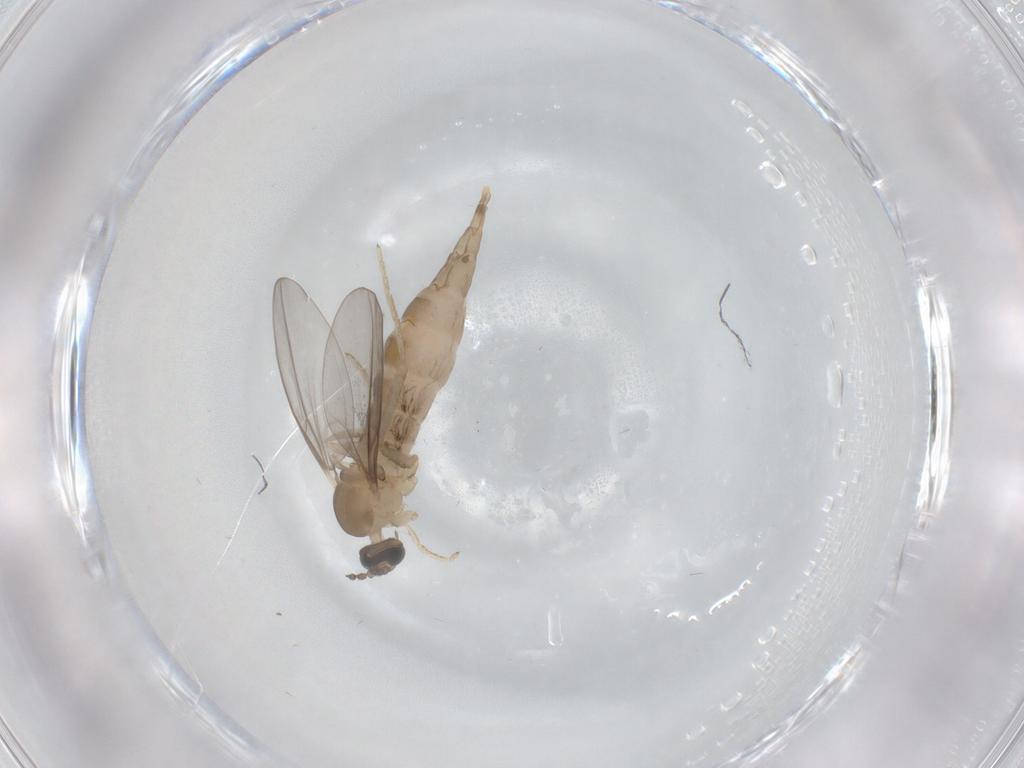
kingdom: Animalia
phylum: Arthropoda
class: Insecta
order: Diptera
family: Cecidomyiidae
